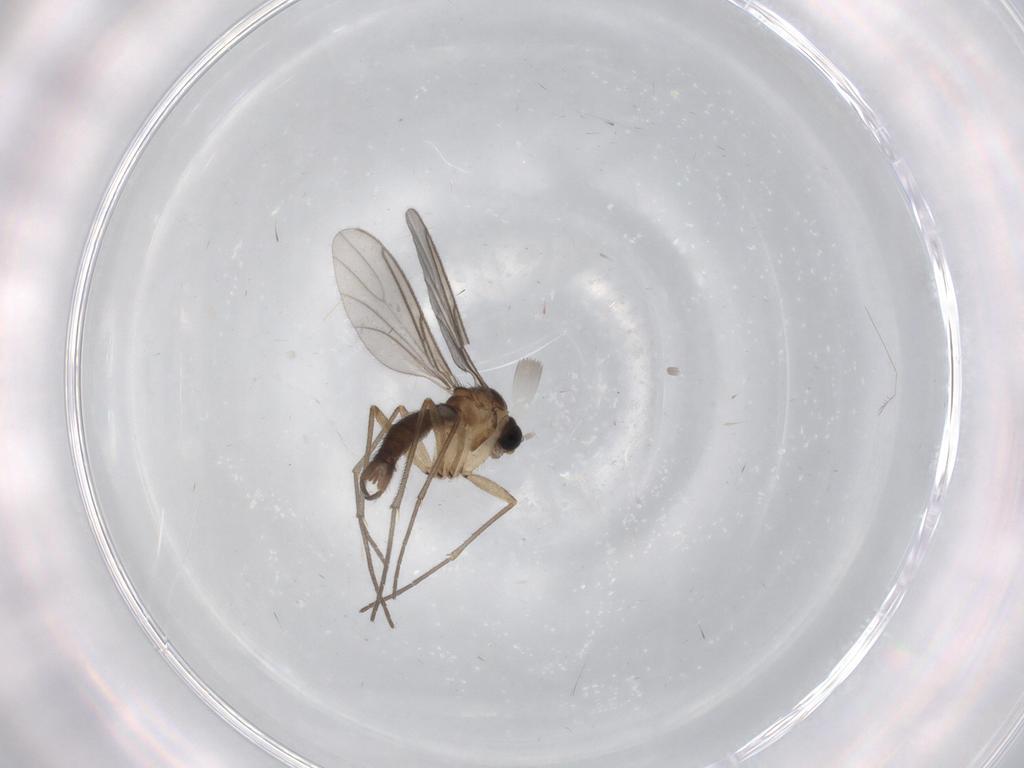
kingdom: Animalia
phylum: Arthropoda
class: Insecta
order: Diptera
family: Sciaridae
